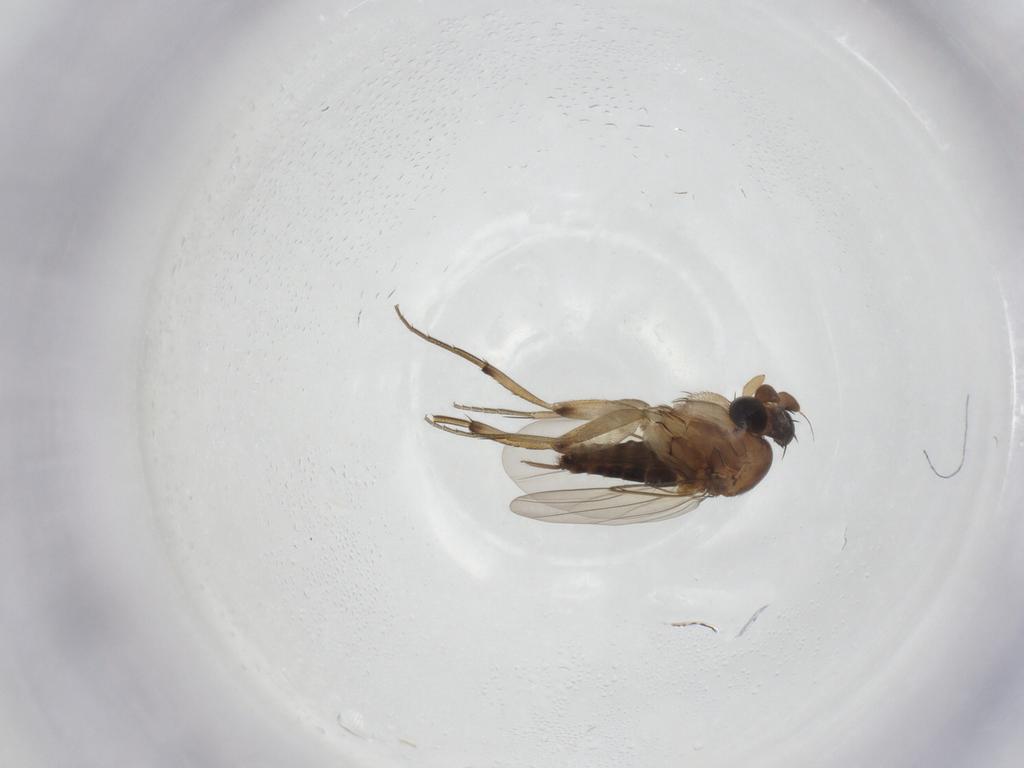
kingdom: Animalia
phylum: Arthropoda
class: Insecta
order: Diptera
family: Phoridae
